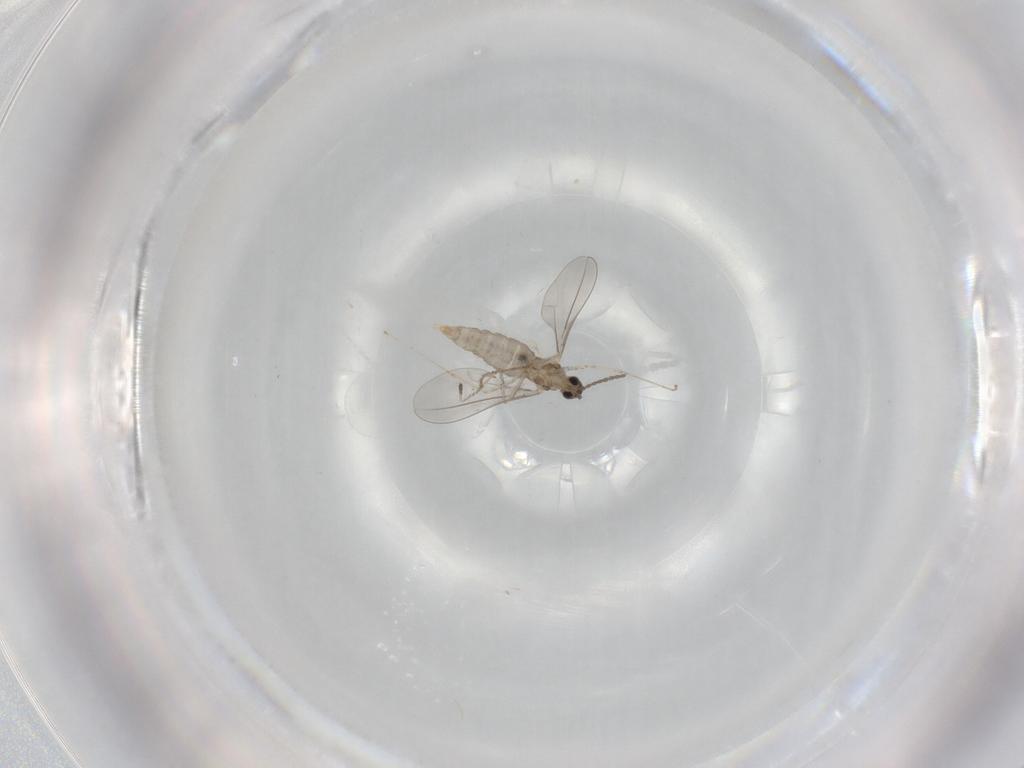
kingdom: Animalia
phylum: Arthropoda
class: Insecta
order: Diptera
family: Cecidomyiidae
